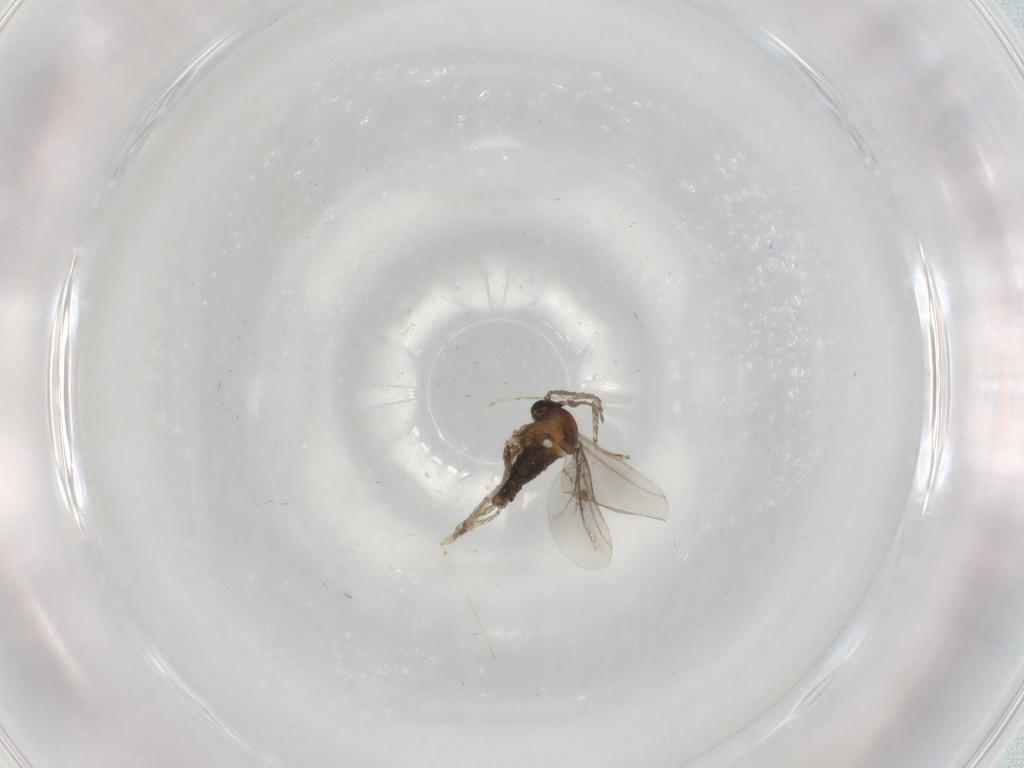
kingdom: Animalia
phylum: Arthropoda
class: Insecta
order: Diptera
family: Cecidomyiidae
